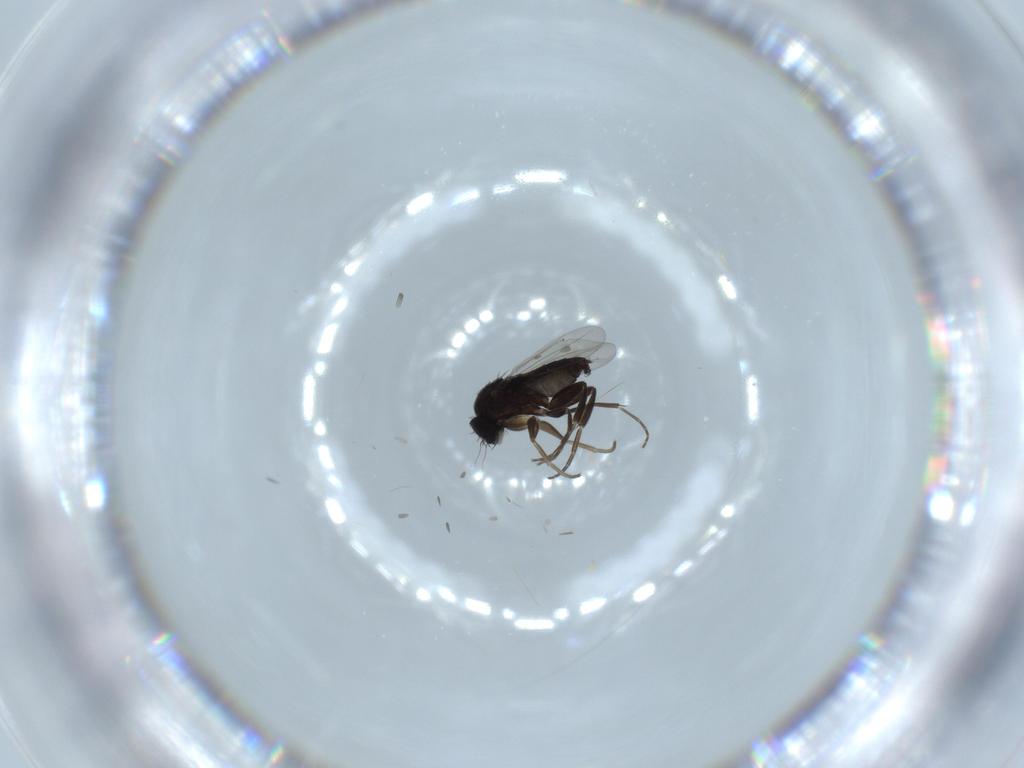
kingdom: Animalia
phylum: Arthropoda
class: Insecta
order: Diptera
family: Phoridae
